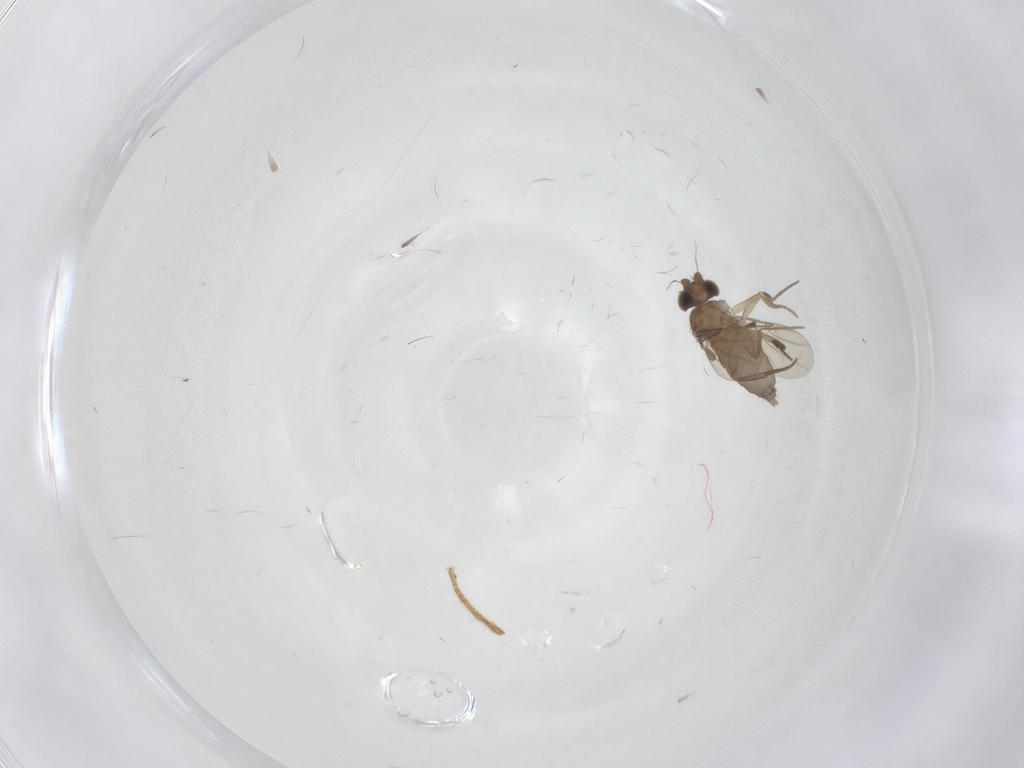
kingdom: Animalia
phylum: Arthropoda
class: Insecta
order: Diptera
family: Phoridae
